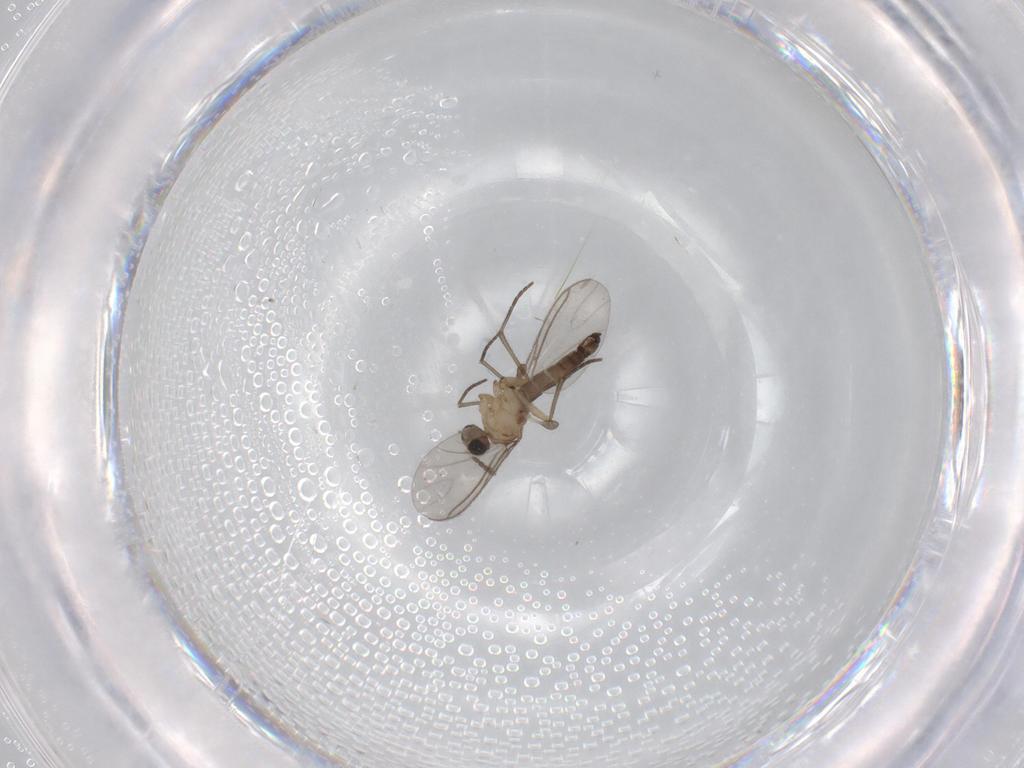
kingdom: Animalia
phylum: Arthropoda
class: Insecta
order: Diptera
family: Sciaridae
